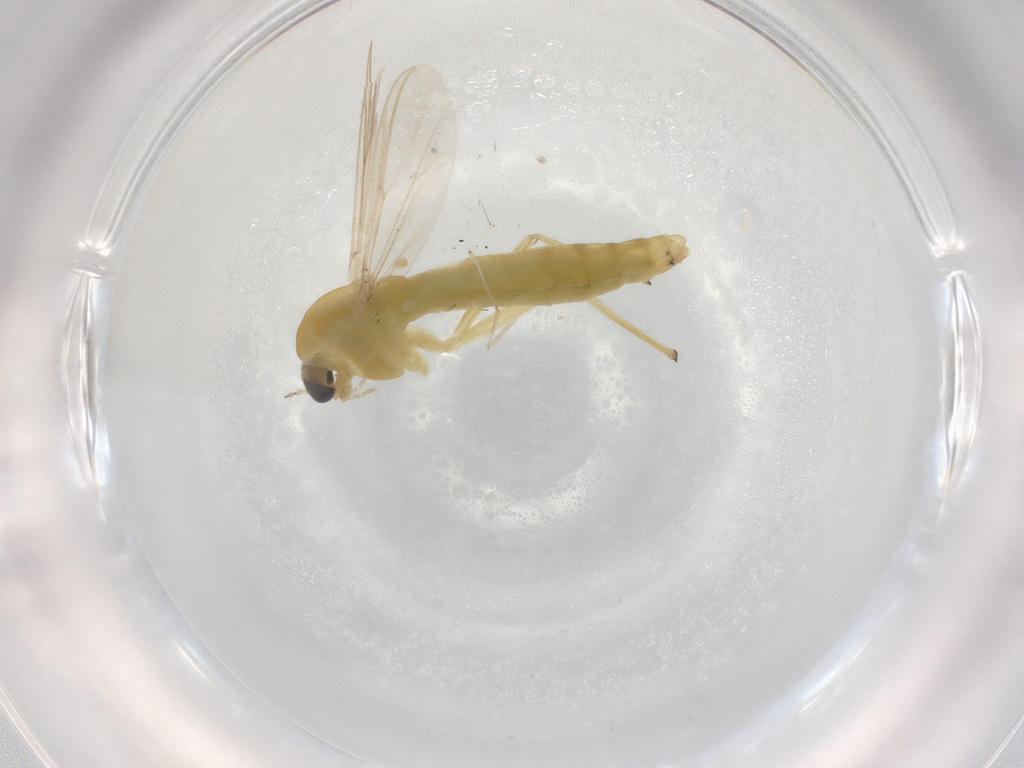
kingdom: Animalia
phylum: Arthropoda
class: Insecta
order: Diptera
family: Chironomidae
